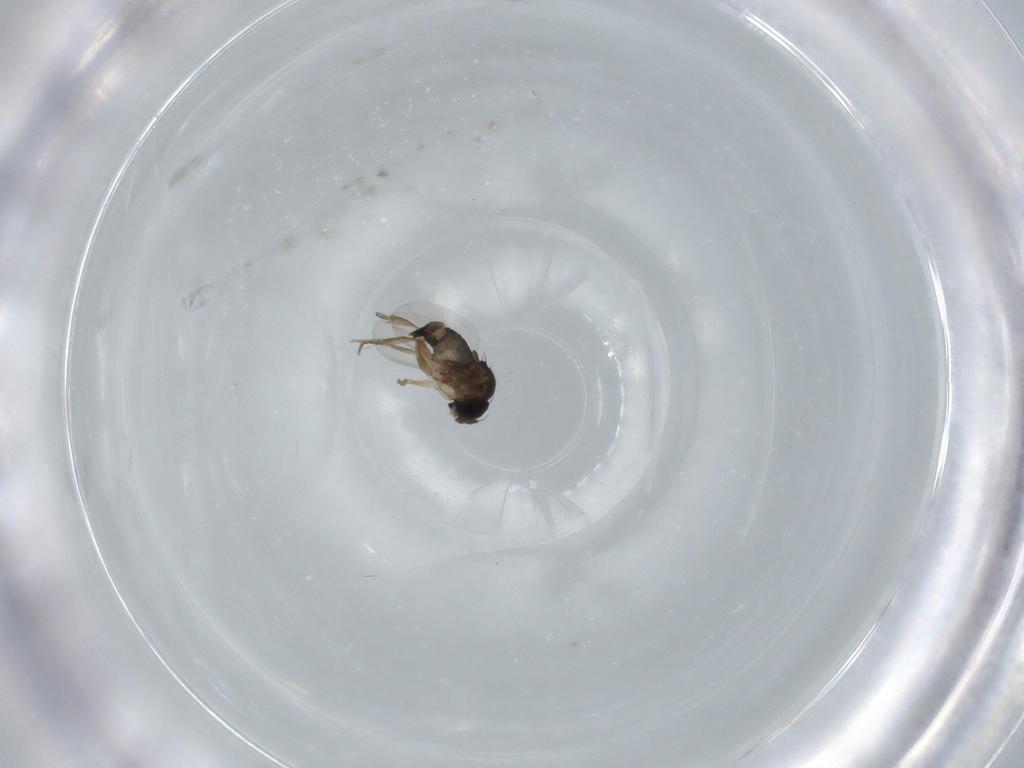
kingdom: Animalia
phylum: Arthropoda
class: Insecta
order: Diptera
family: Phoridae
